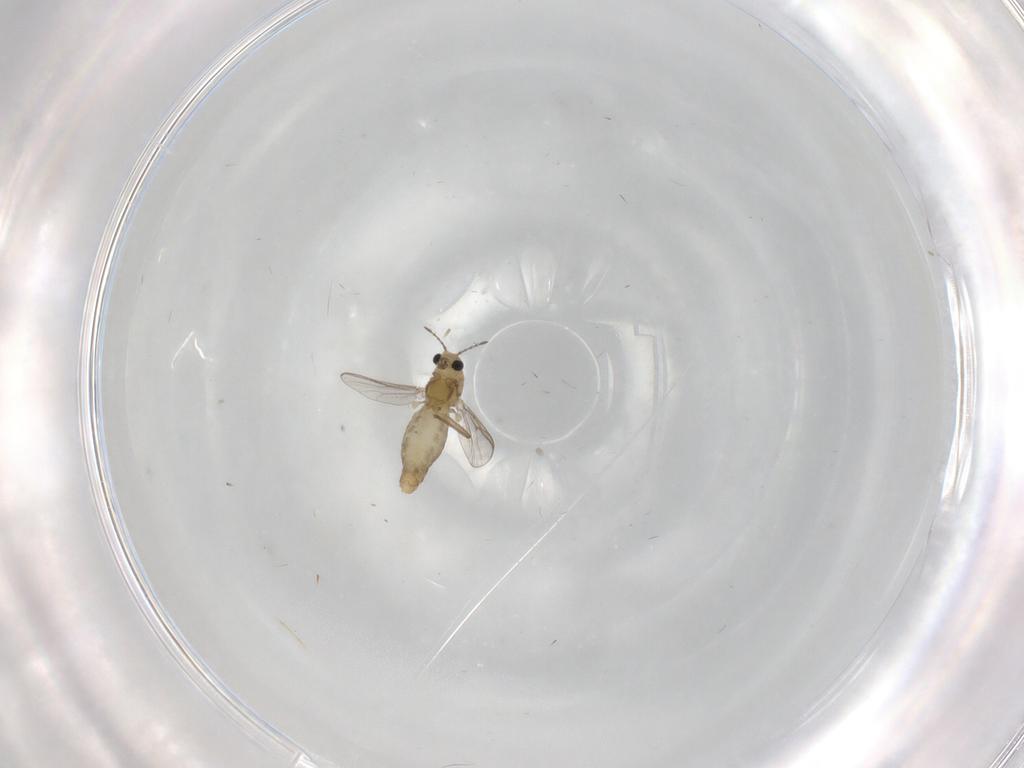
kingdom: Animalia
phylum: Arthropoda
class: Insecta
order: Diptera
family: Chironomidae
